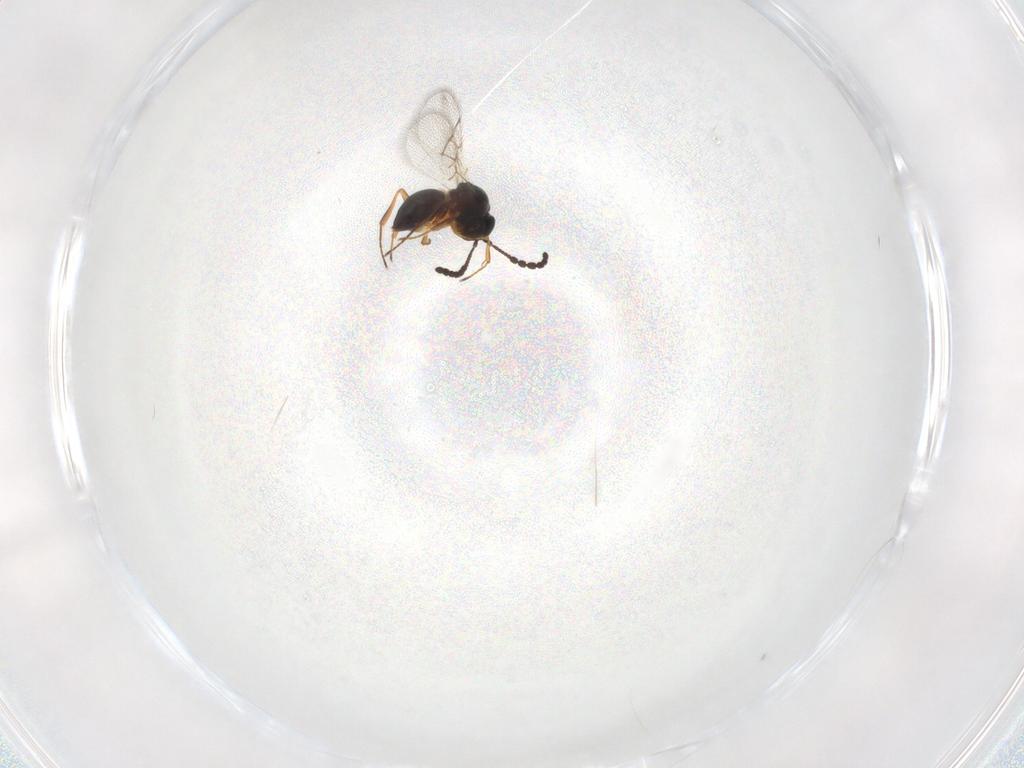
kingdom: Animalia
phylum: Arthropoda
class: Insecta
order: Hymenoptera
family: Figitidae
